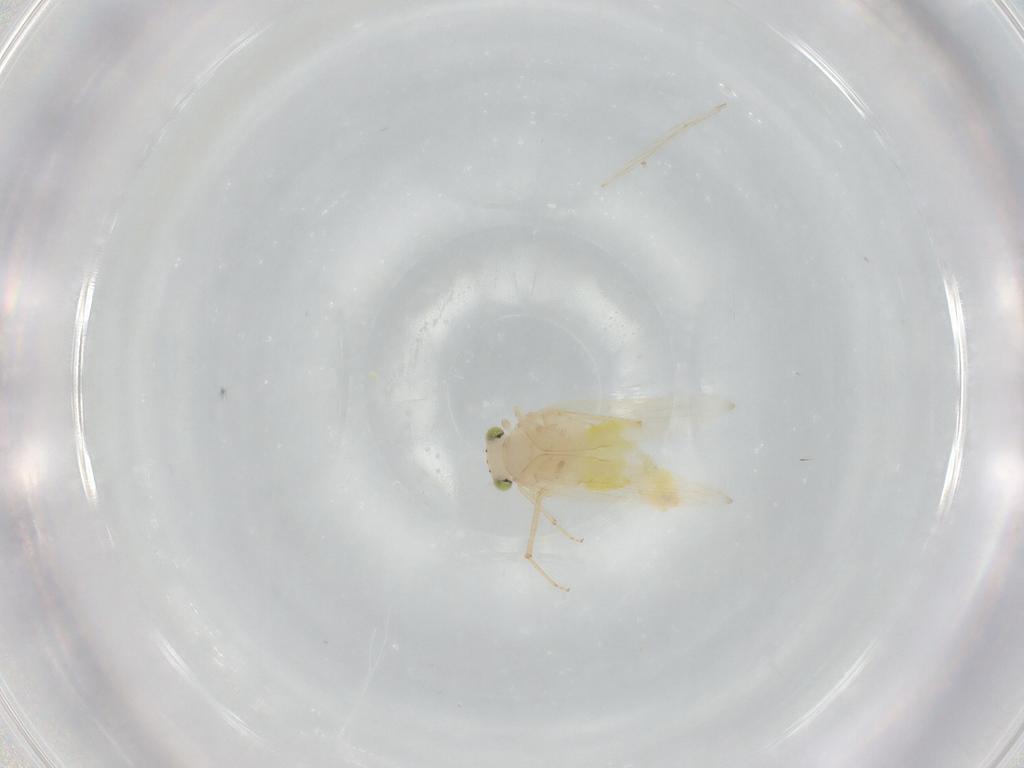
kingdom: Animalia
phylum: Arthropoda
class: Insecta
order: Psocodea
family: Lepidopsocidae
